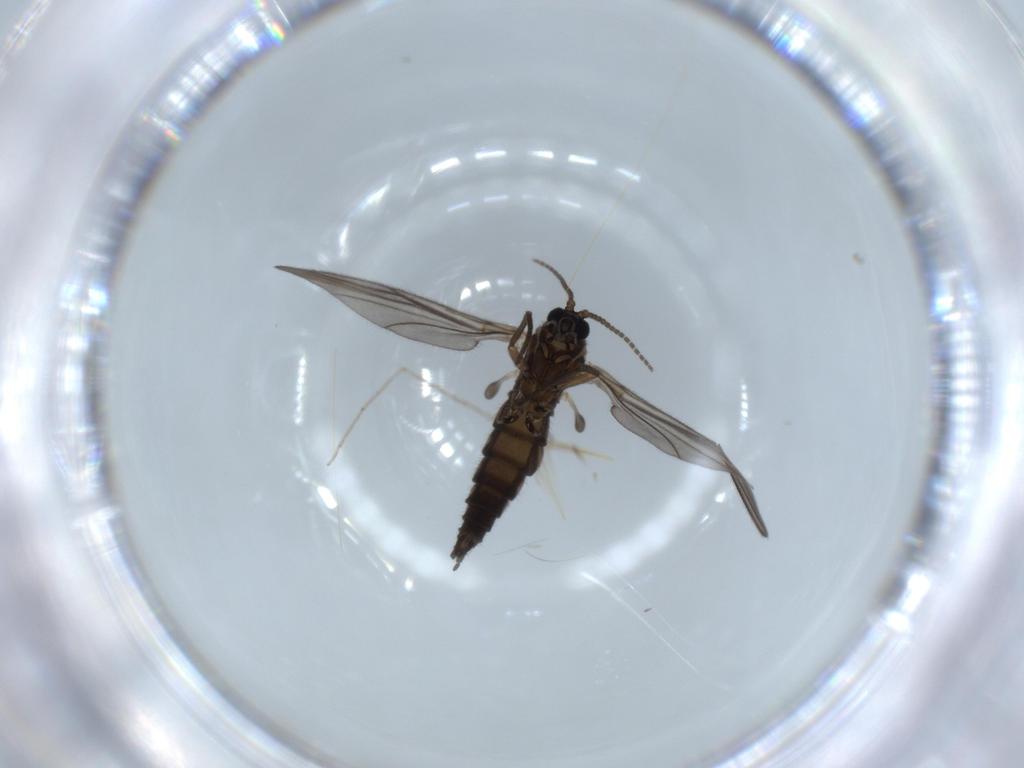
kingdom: Animalia
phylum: Arthropoda
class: Insecta
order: Diptera
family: Sciaridae
